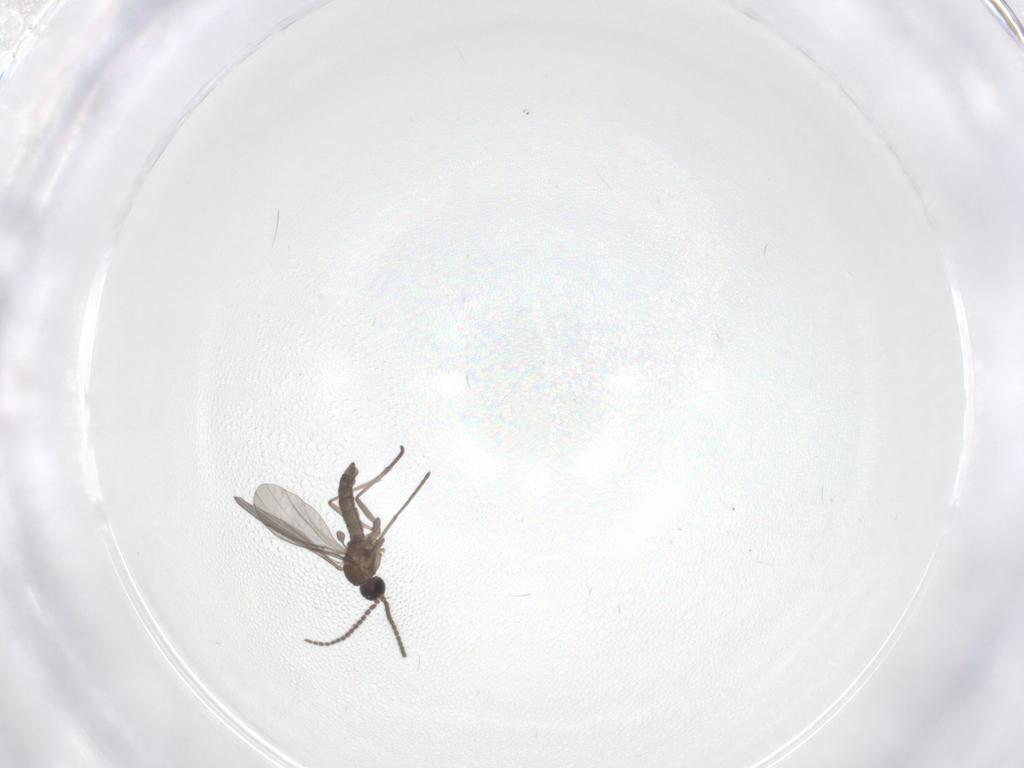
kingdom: Animalia
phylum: Arthropoda
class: Insecta
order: Diptera
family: Sciaridae
